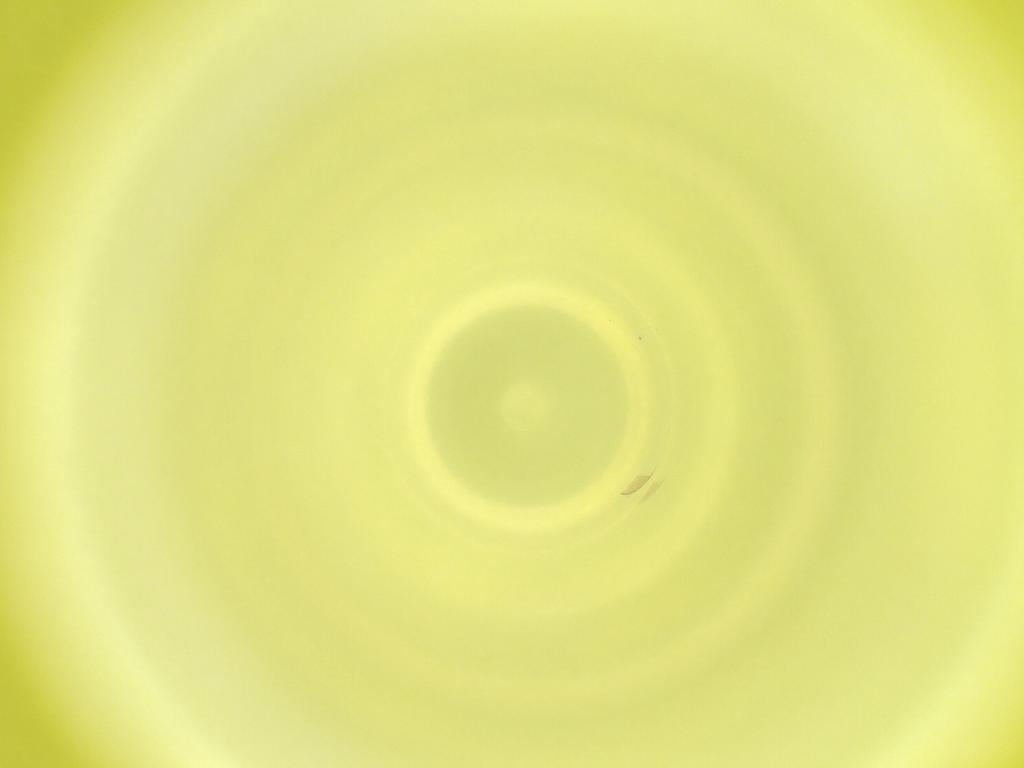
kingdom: Animalia
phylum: Arthropoda
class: Insecta
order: Diptera
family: Cecidomyiidae
